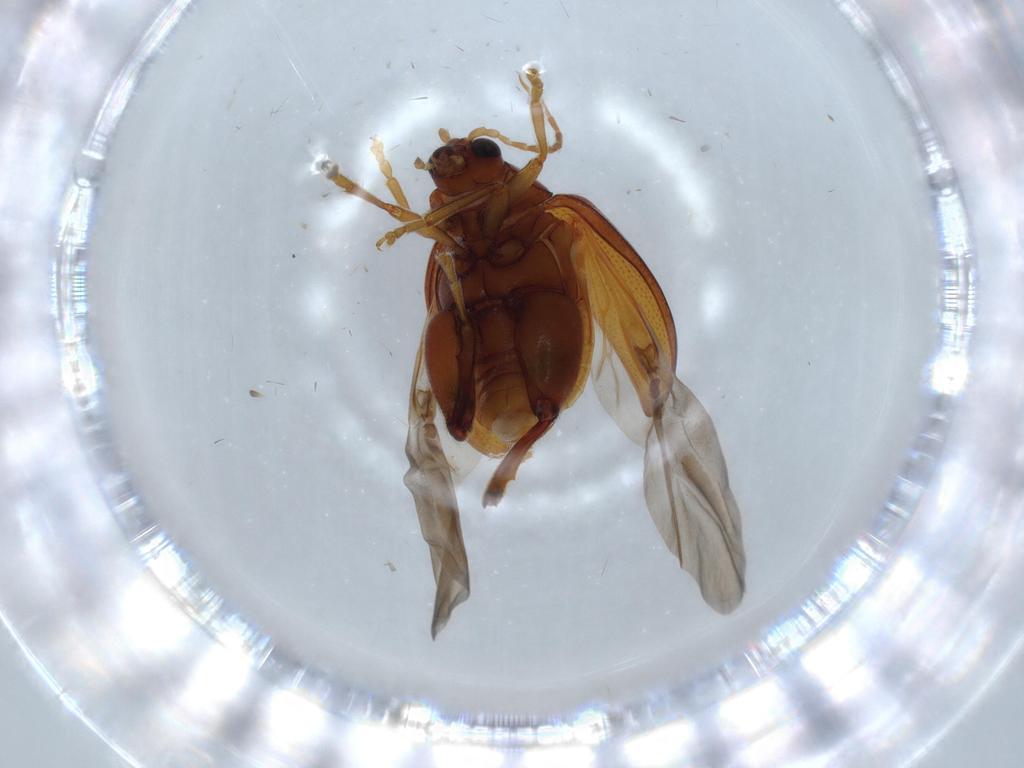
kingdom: Animalia
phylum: Arthropoda
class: Insecta
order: Coleoptera
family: Chrysomelidae
